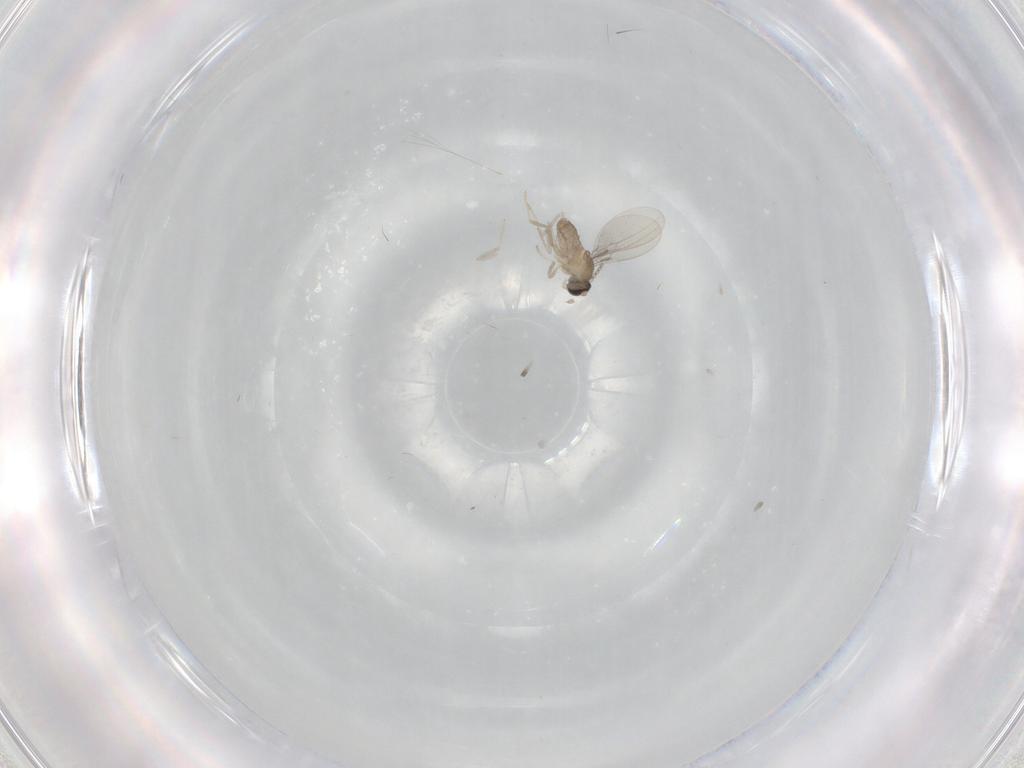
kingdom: Animalia
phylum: Arthropoda
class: Insecta
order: Diptera
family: Cecidomyiidae
